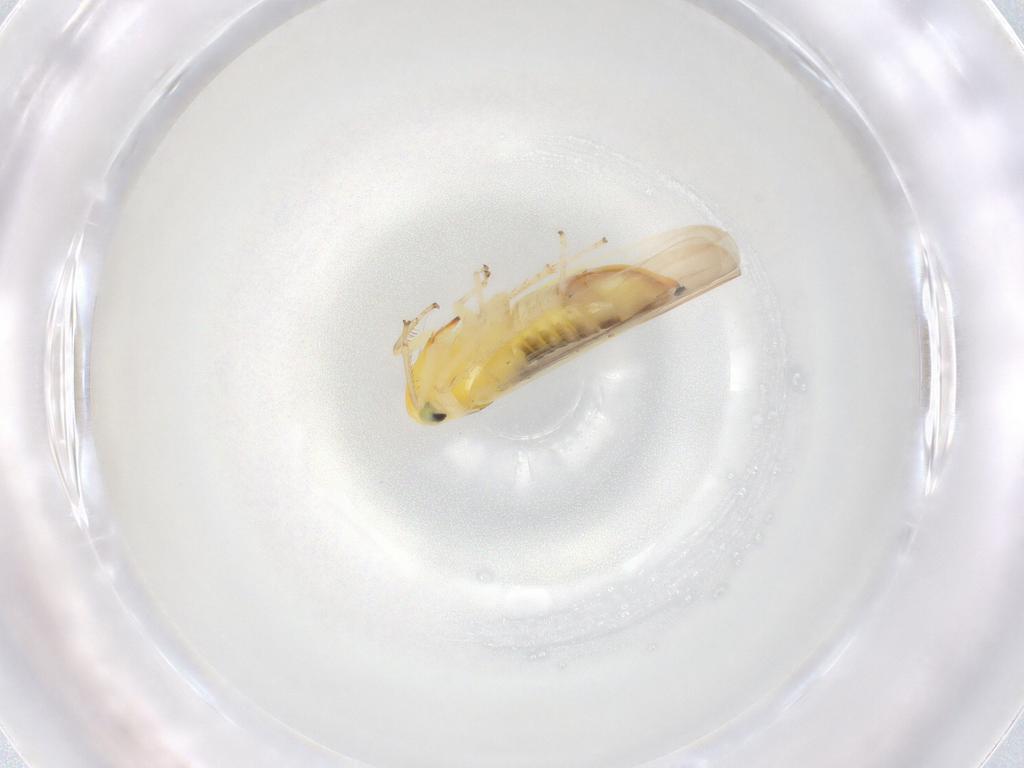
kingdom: Animalia
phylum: Arthropoda
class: Insecta
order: Hemiptera
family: Cicadellidae
